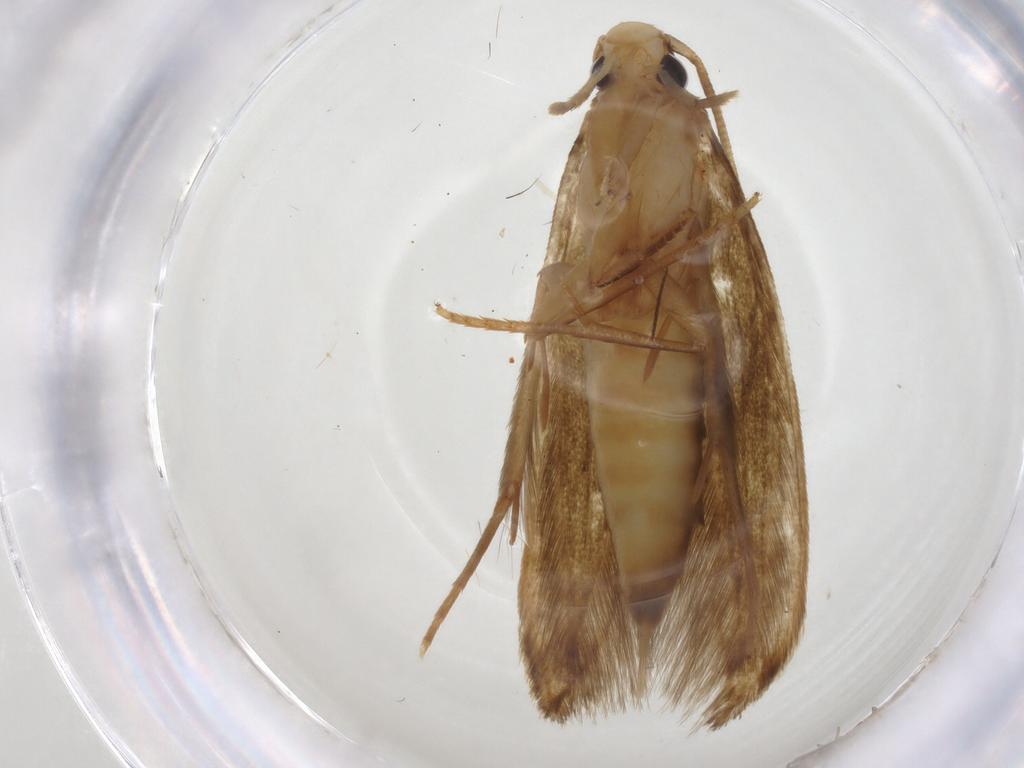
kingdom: Animalia
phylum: Arthropoda
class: Insecta
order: Lepidoptera
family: Tineidae
